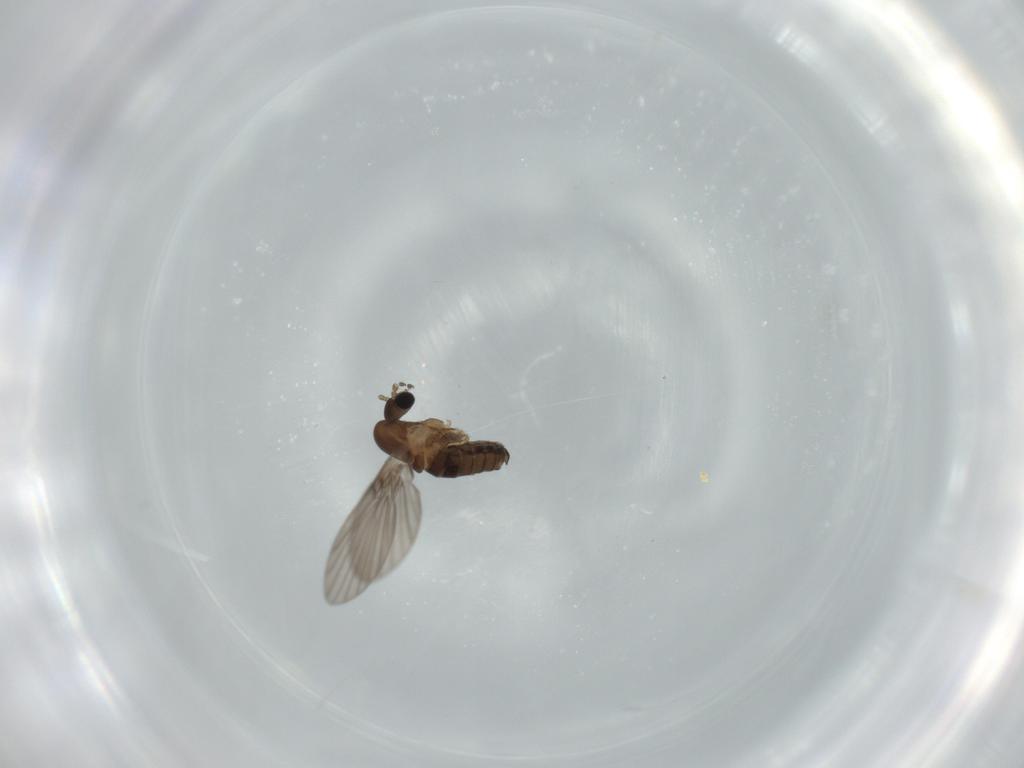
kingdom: Animalia
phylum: Arthropoda
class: Insecta
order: Diptera
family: Psychodidae
